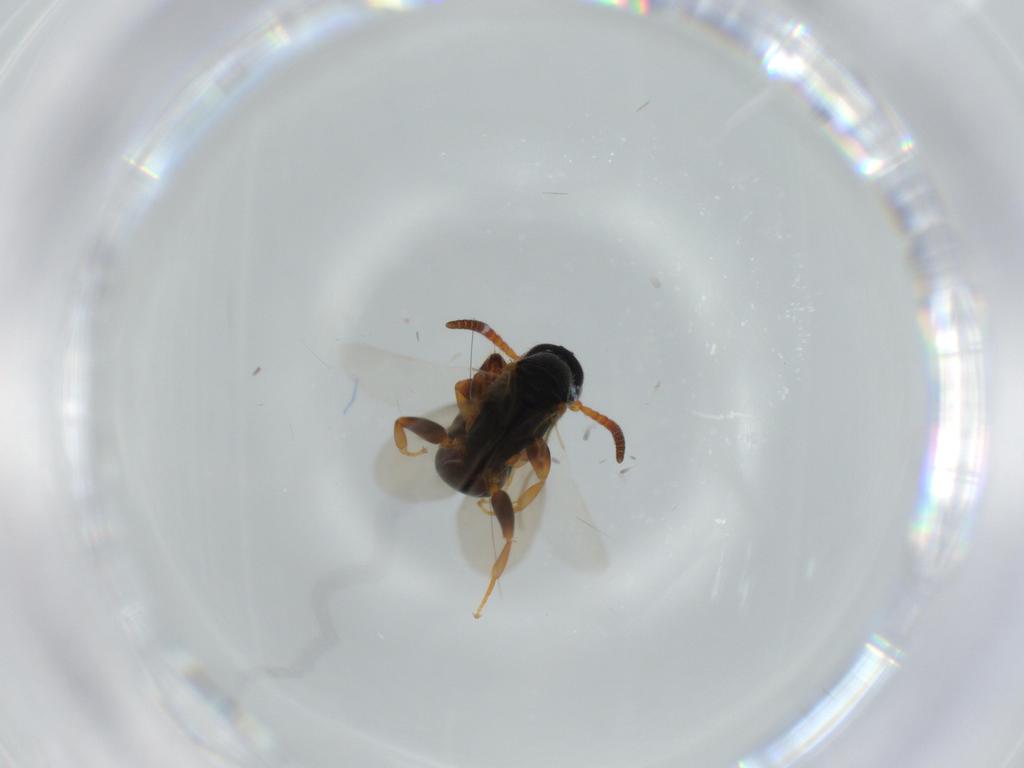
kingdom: Animalia
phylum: Arthropoda
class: Insecta
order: Hymenoptera
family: Bethylidae
